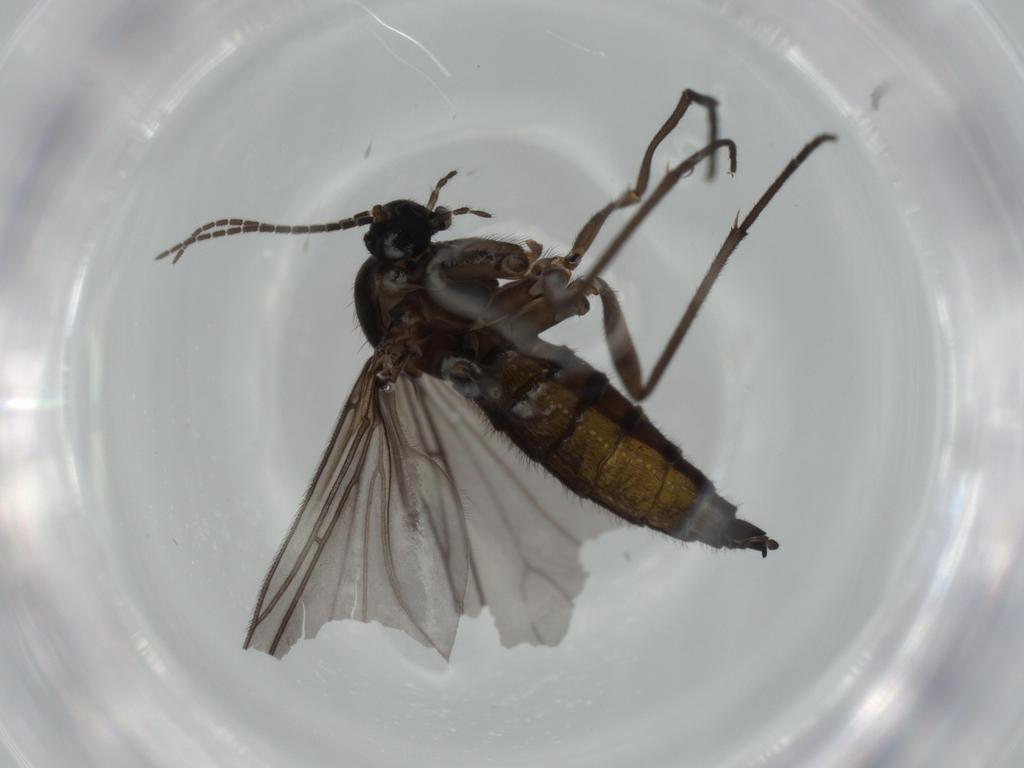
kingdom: Animalia
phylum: Arthropoda
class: Insecta
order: Diptera
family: Sciaridae
